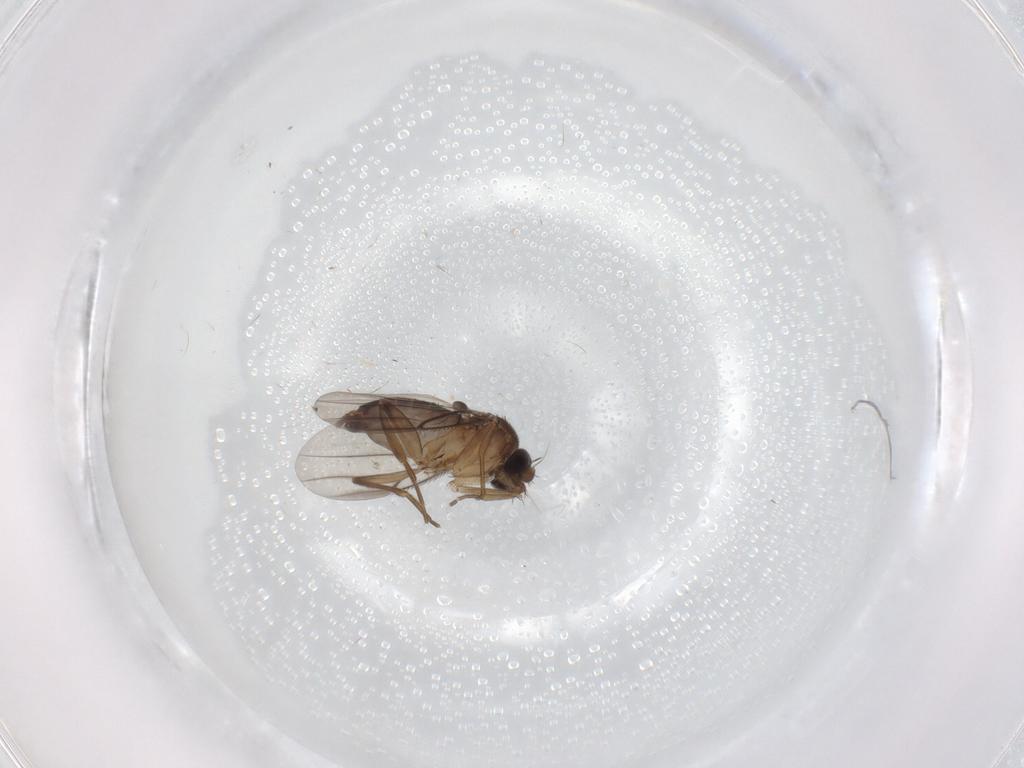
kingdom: Animalia
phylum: Arthropoda
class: Insecta
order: Diptera
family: Phoridae
